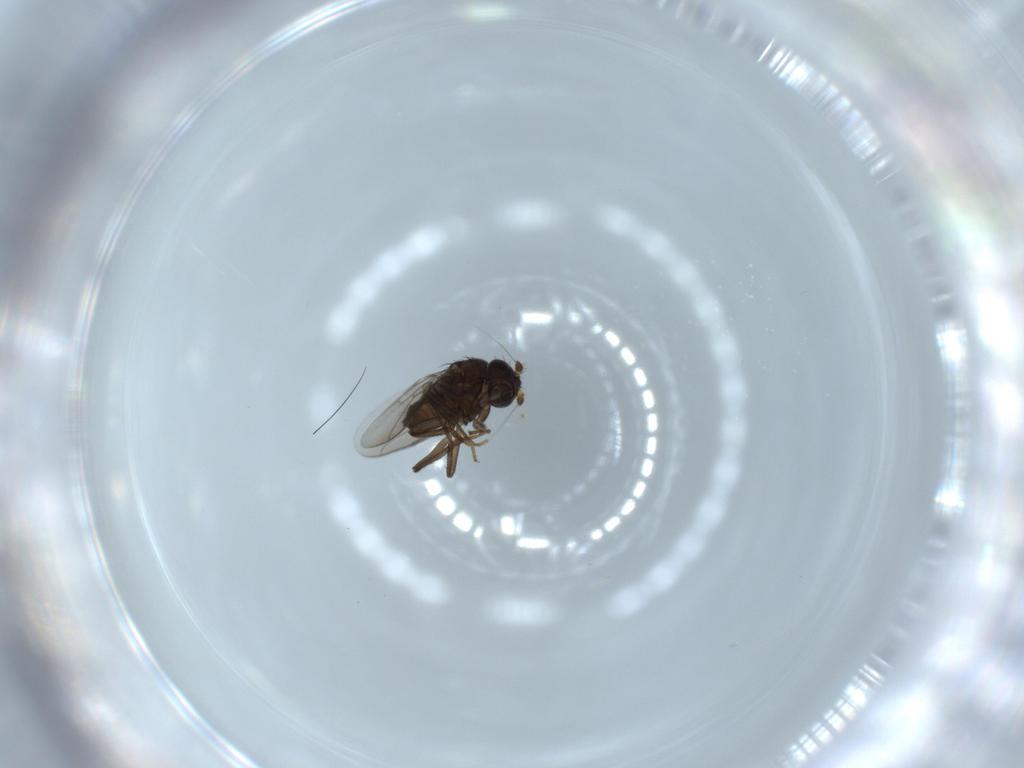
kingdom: Animalia
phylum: Arthropoda
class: Insecta
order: Diptera
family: Sphaeroceridae
